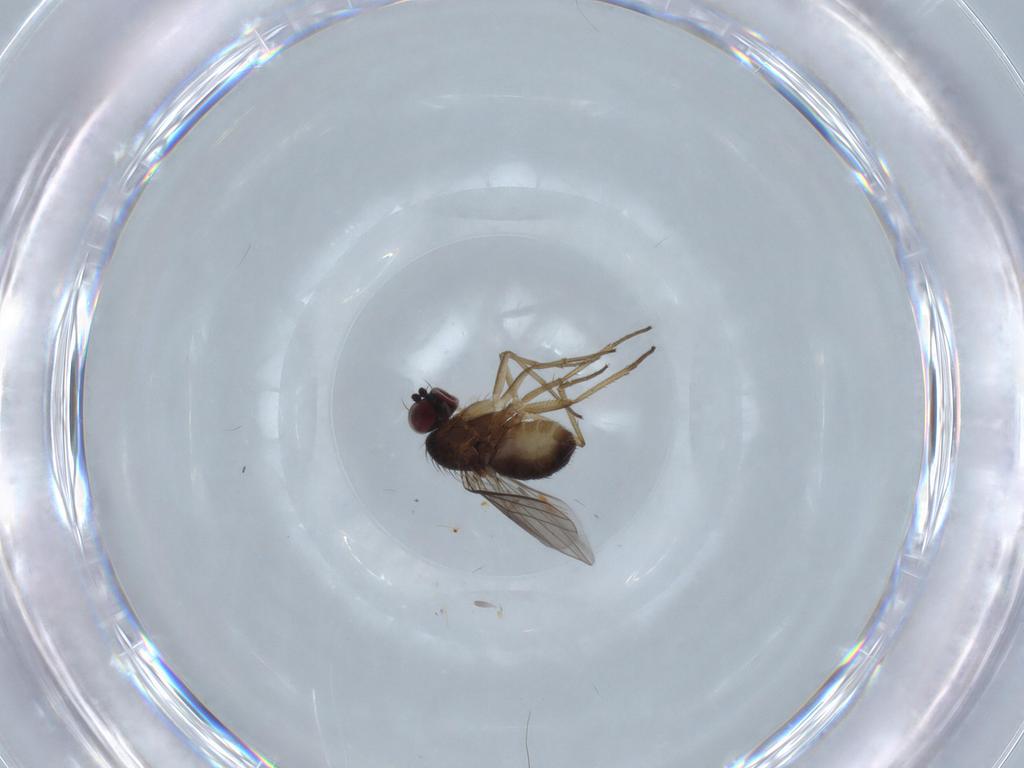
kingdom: Animalia
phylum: Arthropoda
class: Insecta
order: Diptera
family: Dolichopodidae
